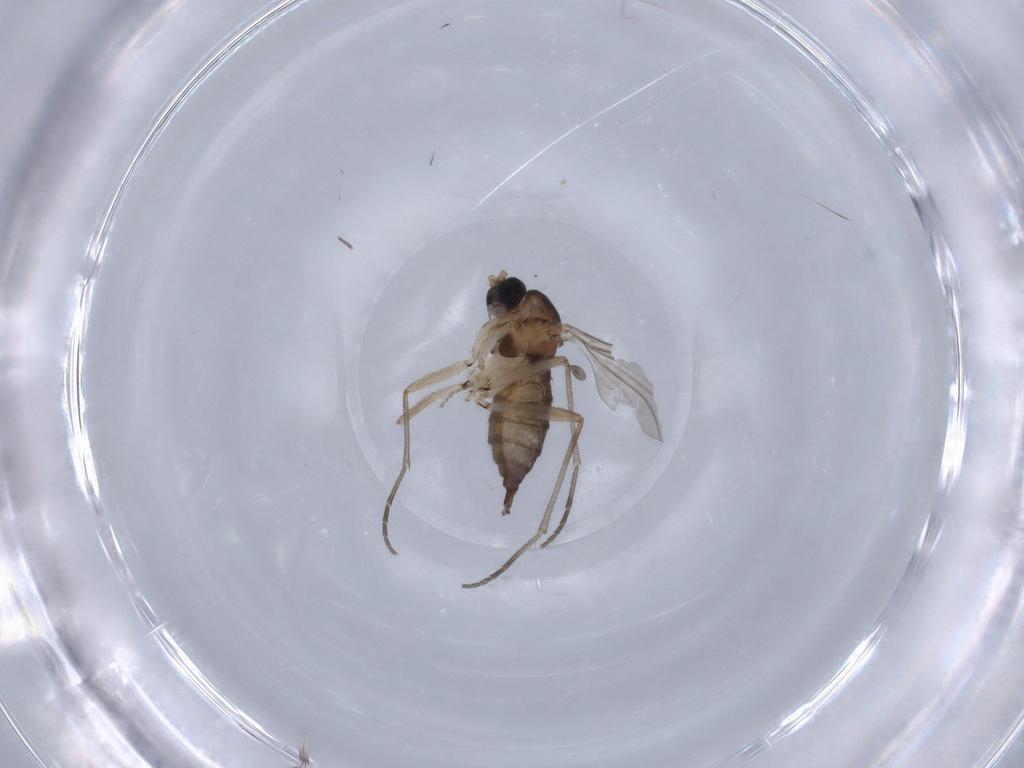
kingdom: Animalia
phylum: Arthropoda
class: Insecta
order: Diptera
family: Sciaridae
